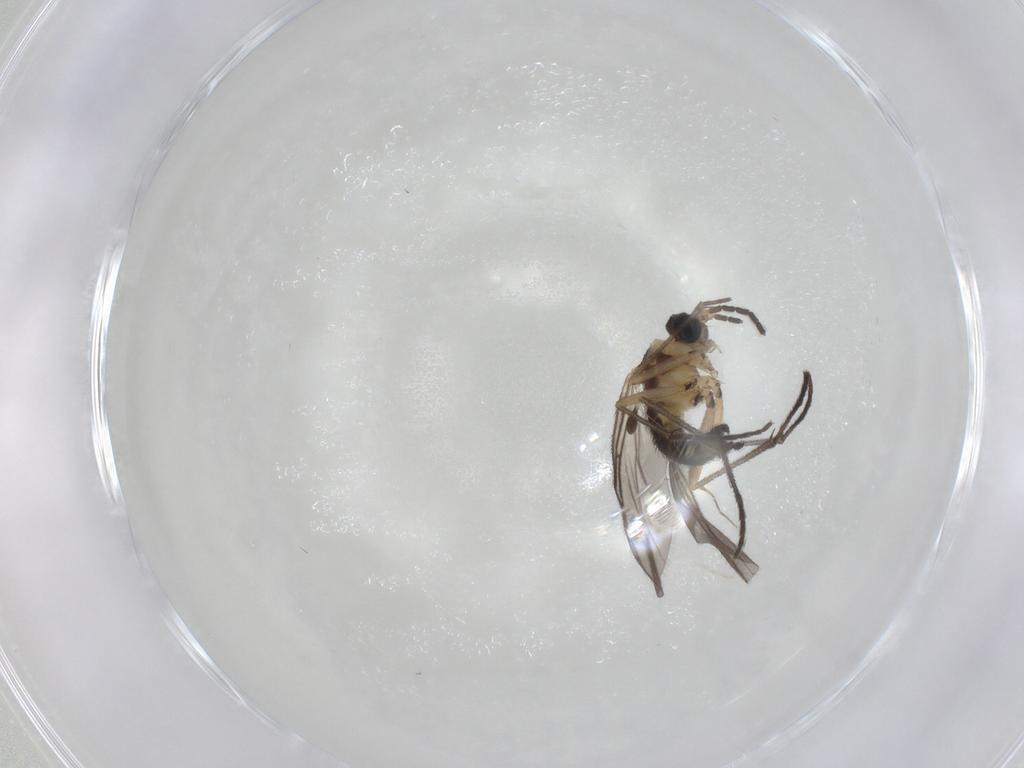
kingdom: Animalia
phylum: Arthropoda
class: Insecta
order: Diptera
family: Sciaridae
